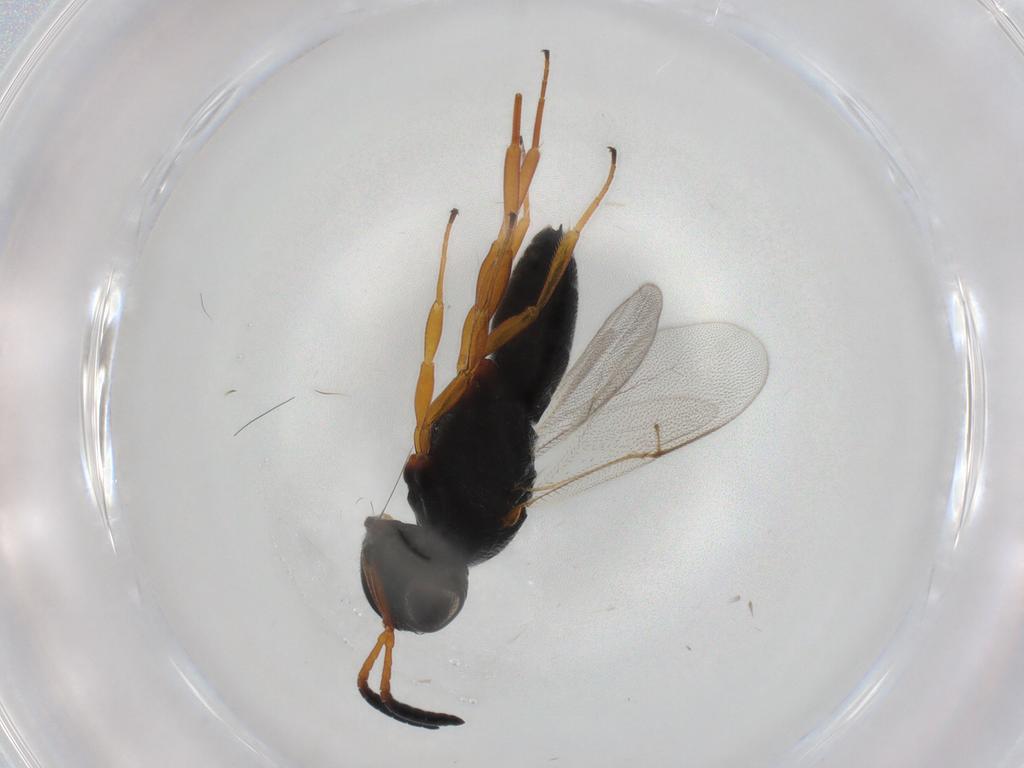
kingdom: Animalia
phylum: Arthropoda
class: Insecta
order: Hymenoptera
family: Scelionidae
